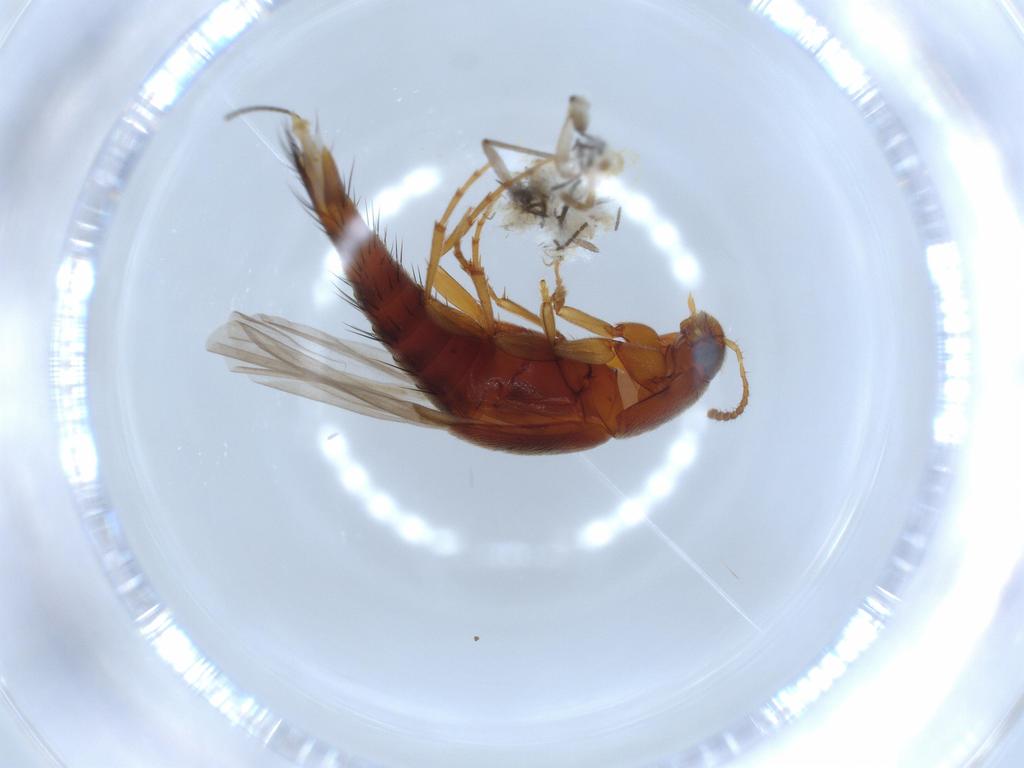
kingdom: Animalia
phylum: Arthropoda
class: Insecta
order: Coleoptera
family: Staphylinidae
